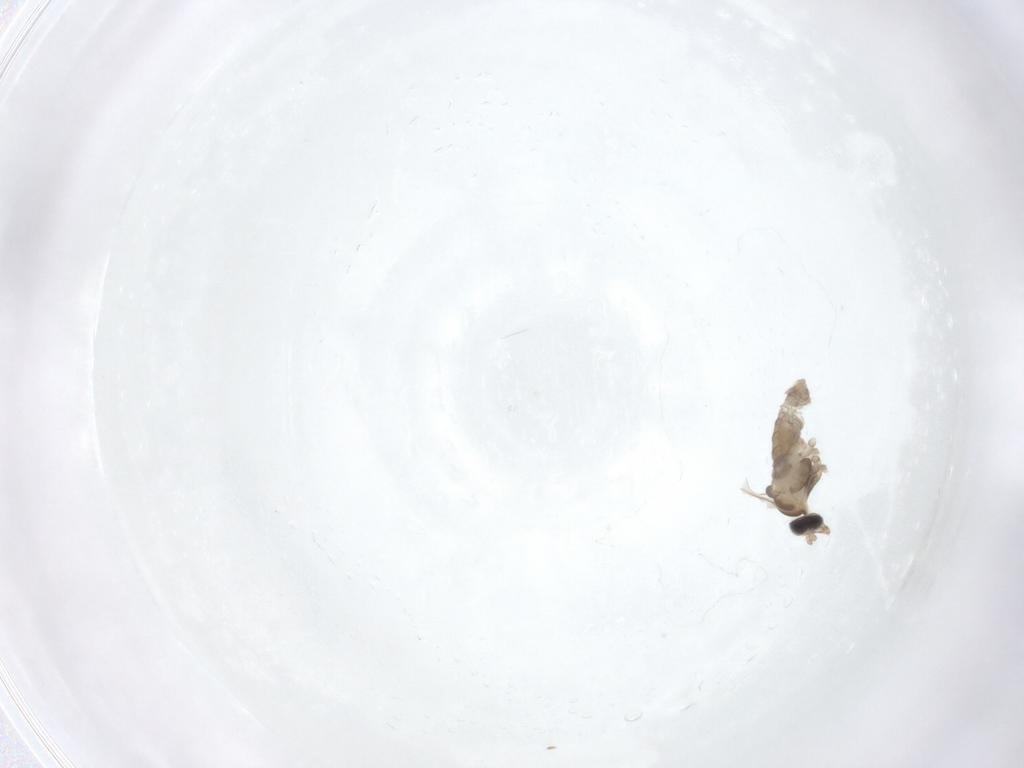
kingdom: Animalia
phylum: Arthropoda
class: Insecta
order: Diptera
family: Cecidomyiidae
